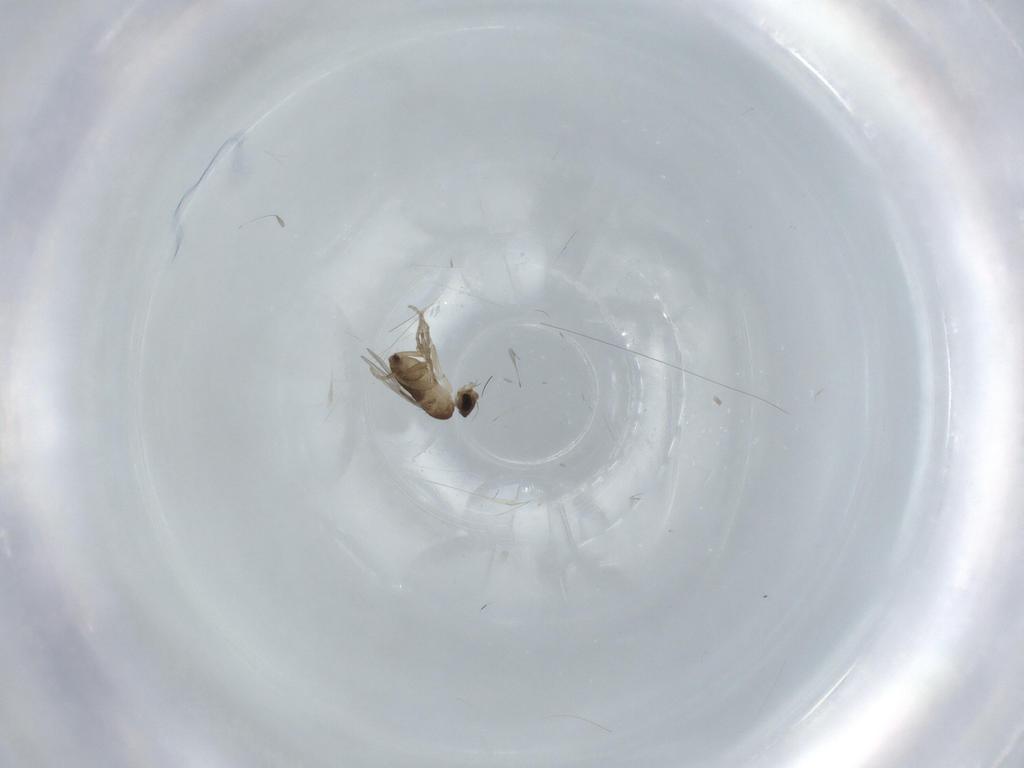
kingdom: Animalia
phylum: Arthropoda
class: Insecta
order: Diptera
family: Phoridae
